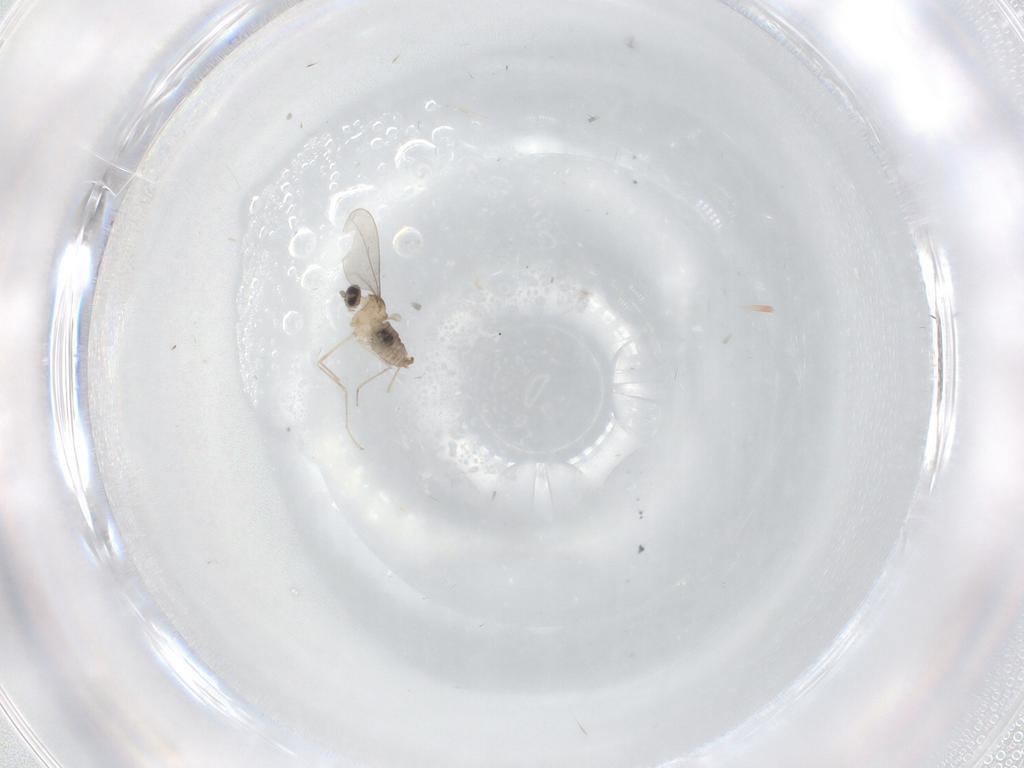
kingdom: Animalia
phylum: Arthropoda
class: Insecta
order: Diptera
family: Cecidomyiidae
